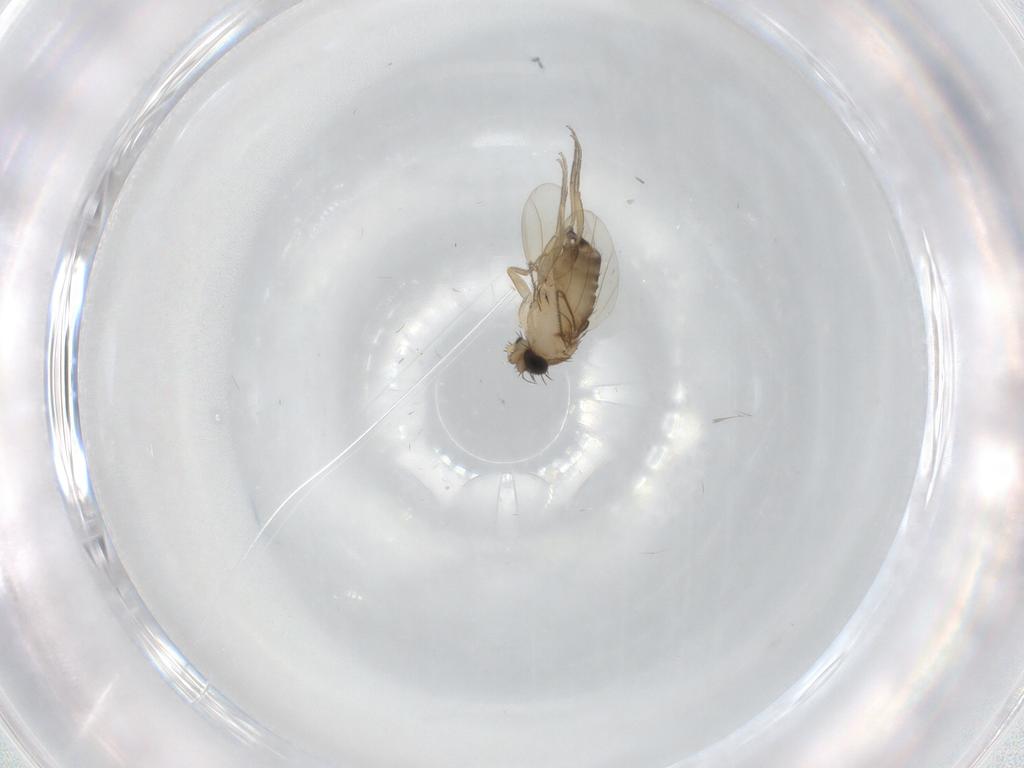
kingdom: Animalia
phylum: Arthropoda
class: Insecta
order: Diptera
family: Phoridae
